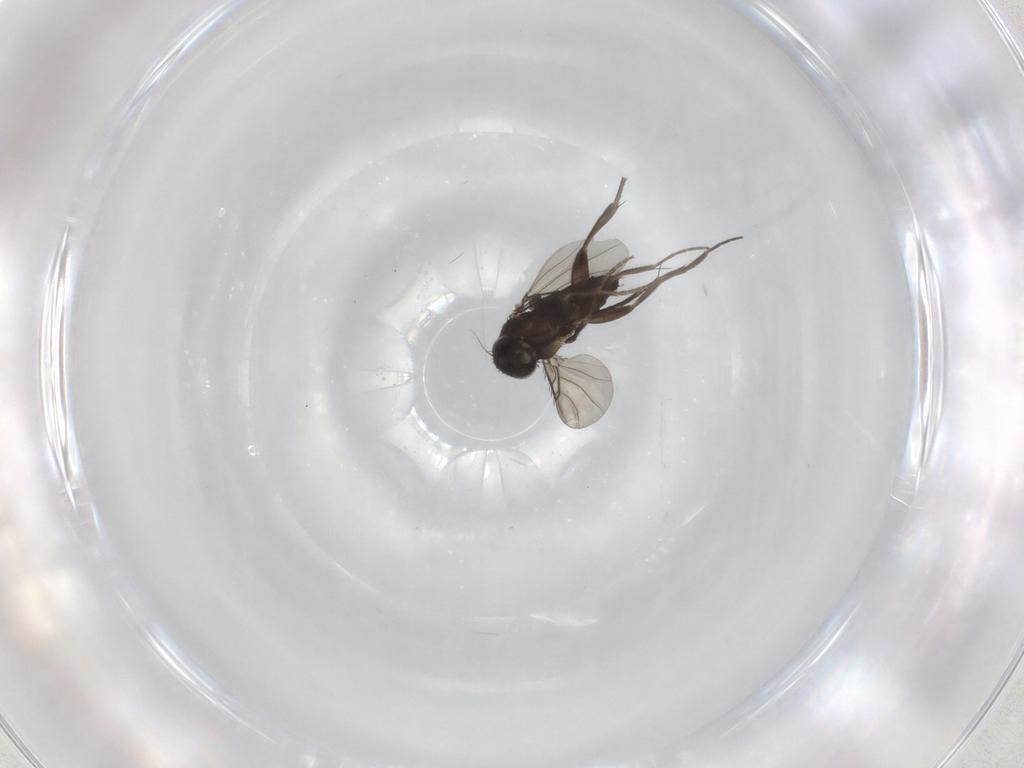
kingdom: Animalia
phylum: Arthropoda
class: Insecta
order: Diptera
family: Phoridae
